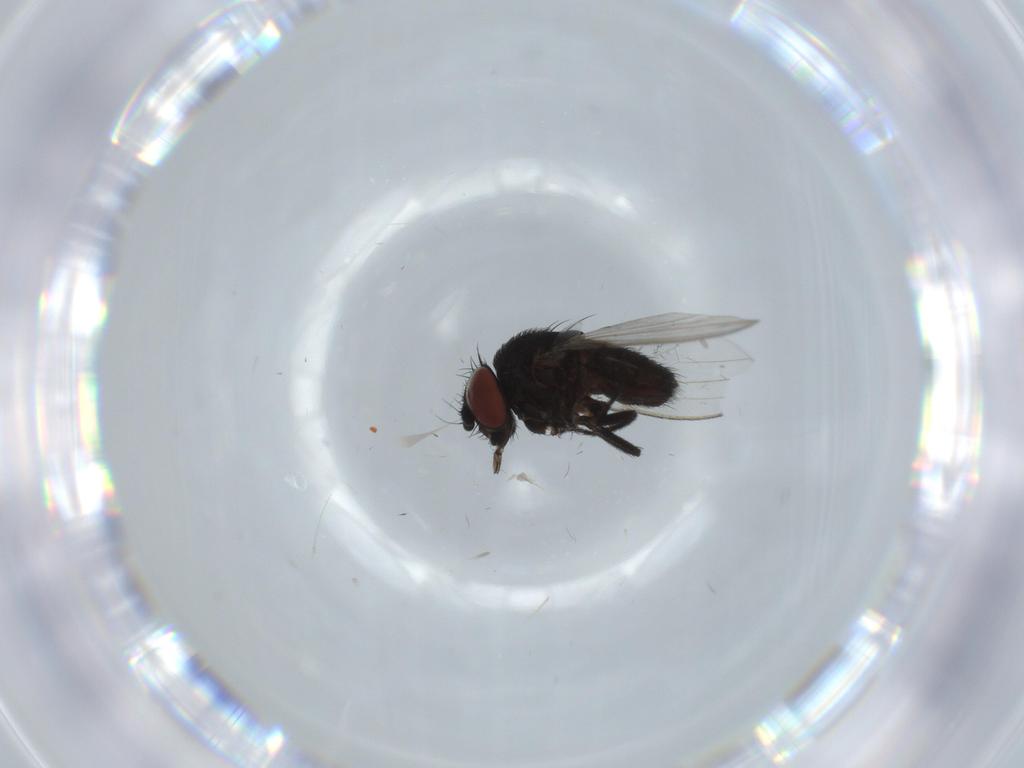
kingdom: Animalia
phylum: Arthropoda
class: Insecta
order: Diptera
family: Milichiidae
